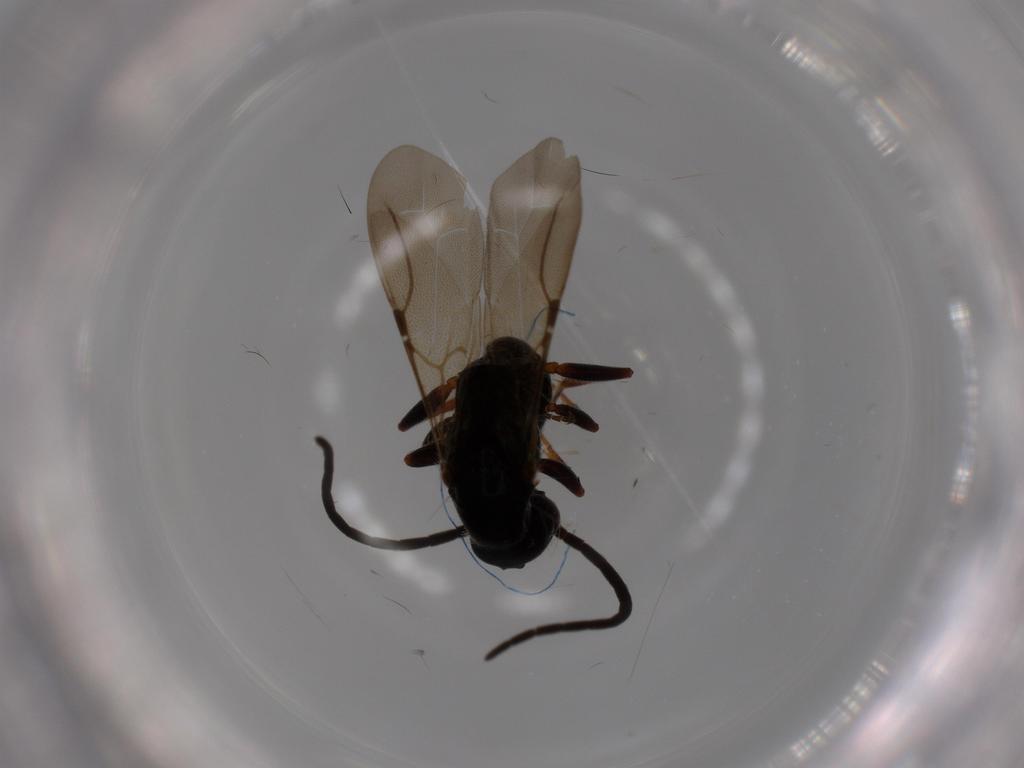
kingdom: Animalia
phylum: Arthropoda
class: Insecta
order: Hymenoptera
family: Bethylidae
